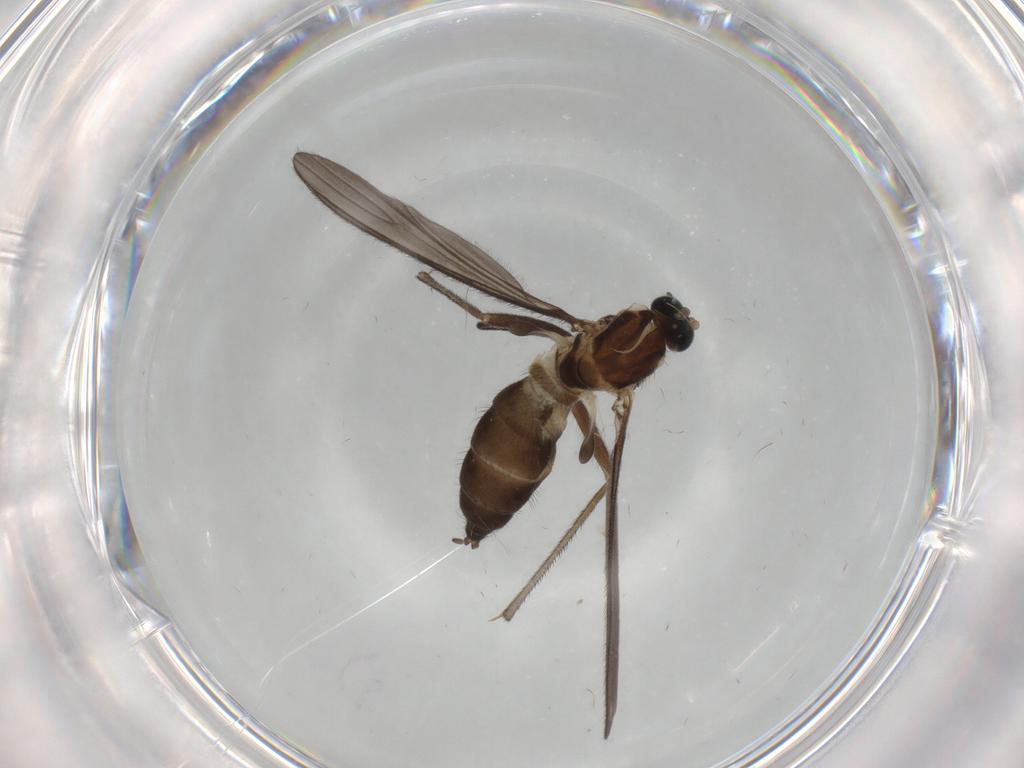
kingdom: Animalia
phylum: Arthropoda
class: Insecta
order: Diptera
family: Sciaridae
